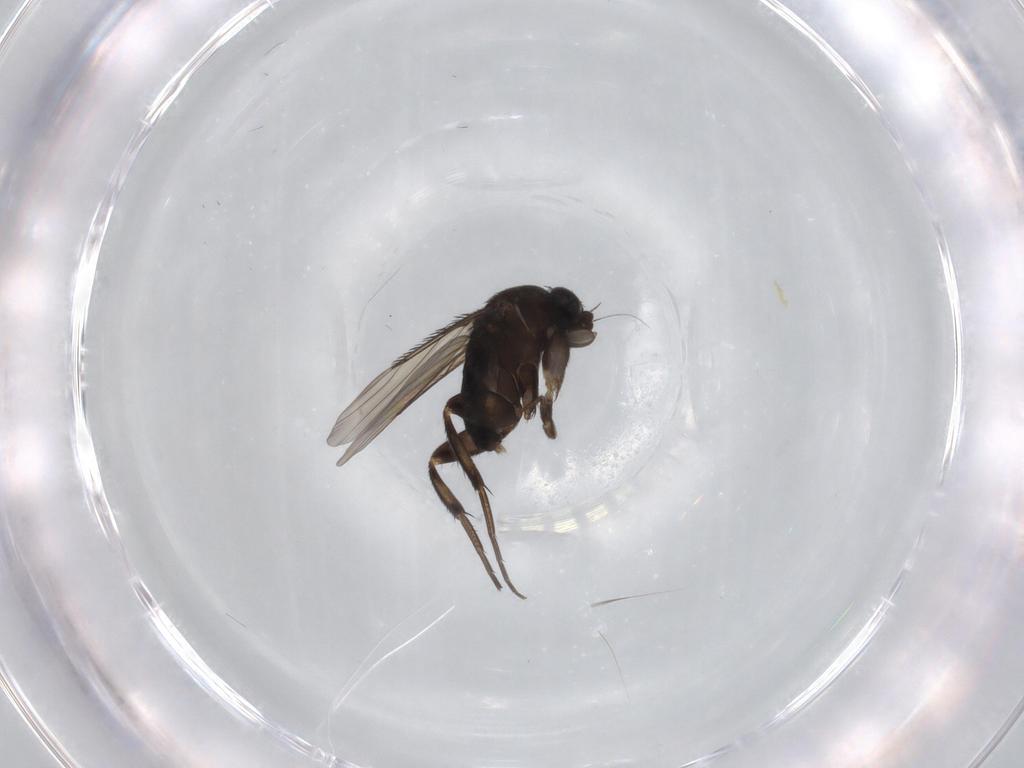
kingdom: Animalia
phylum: Arthropoda
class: Insecta
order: Diptera
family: Phoridae
